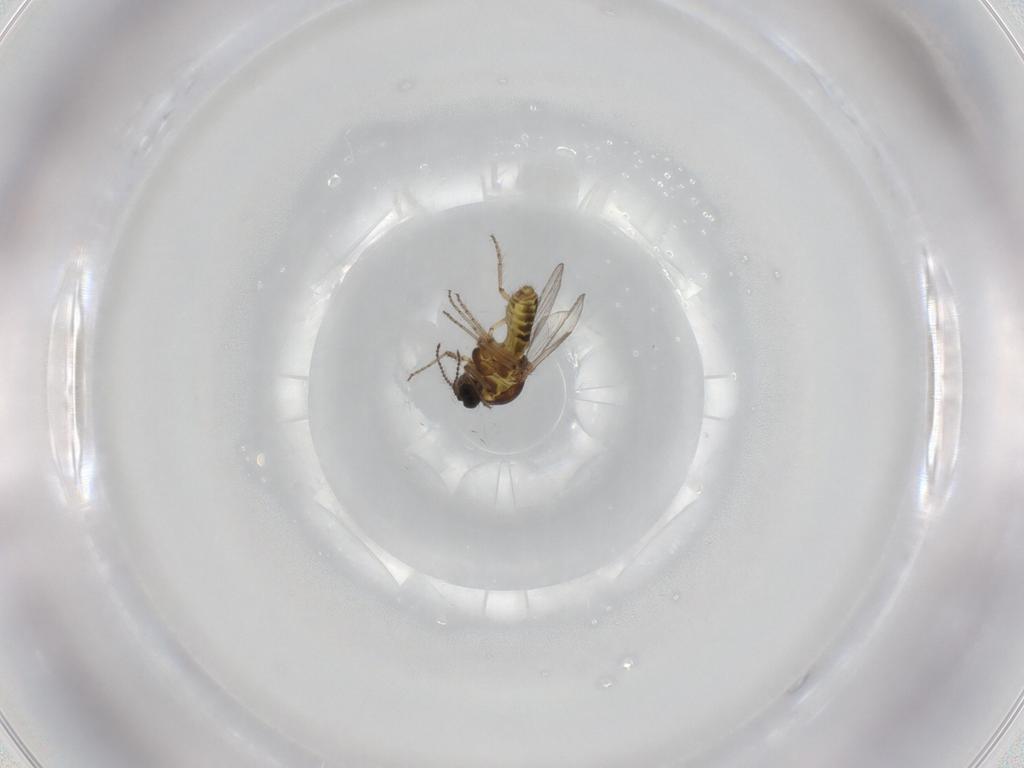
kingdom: Animalia
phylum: Arthropoda
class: Insecta
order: Diptera
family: Ceratopogonidae
